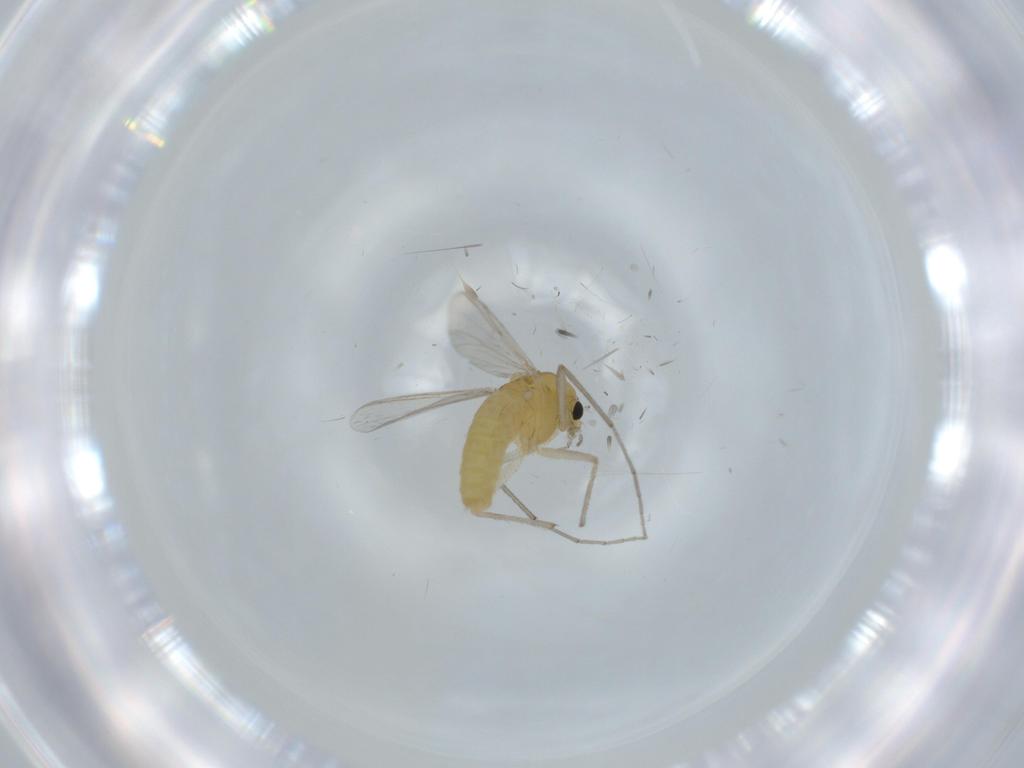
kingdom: Animalia
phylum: Arthropoda
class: Insecta
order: Diptera
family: Chironomidae
